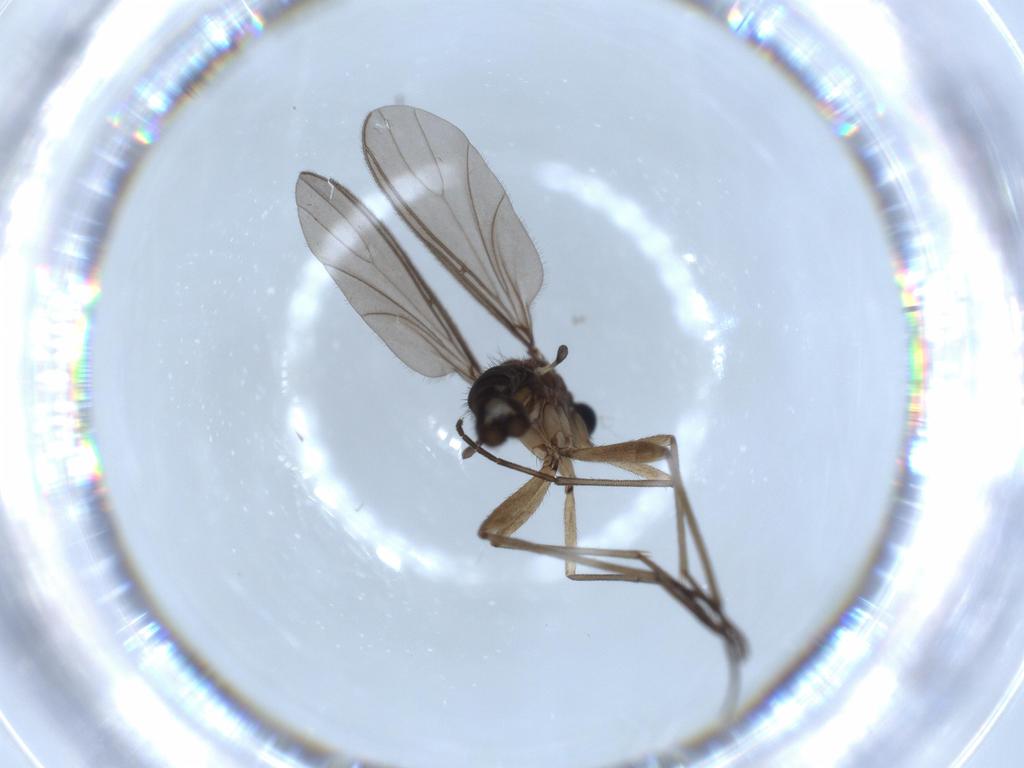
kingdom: Animalia
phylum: Arthropoda
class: Insecta
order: Diptera
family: Sciaridae
